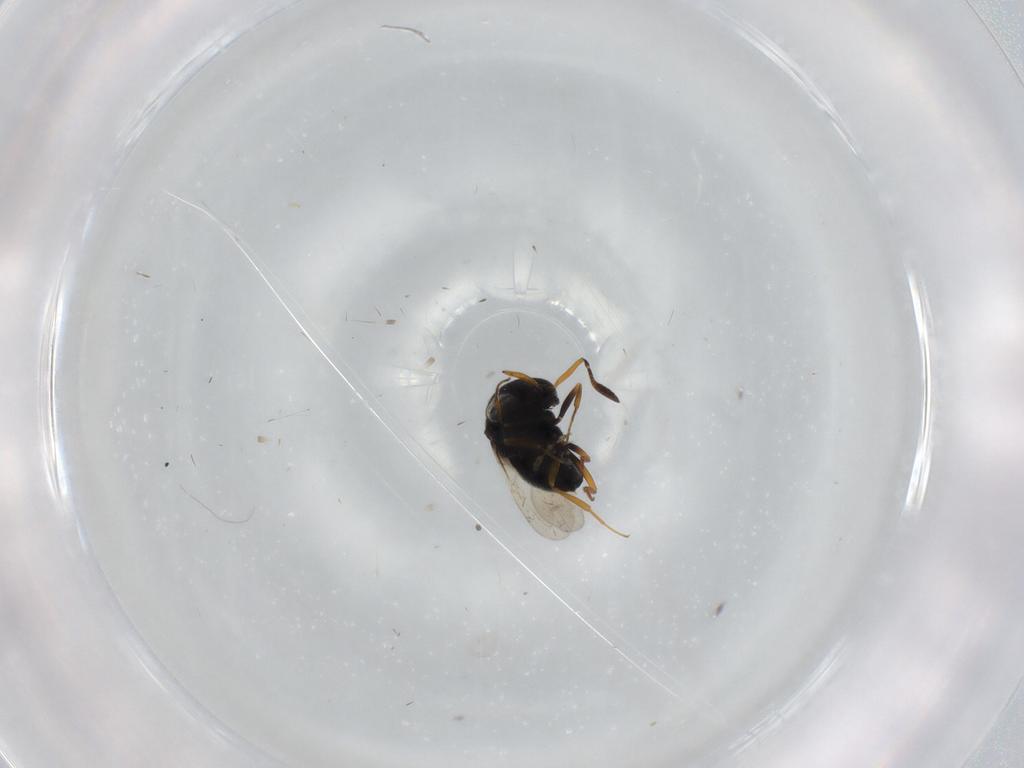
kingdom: Animalia
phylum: Arthropoda
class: Insecta
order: Hymenoptera
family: Scelionidae
